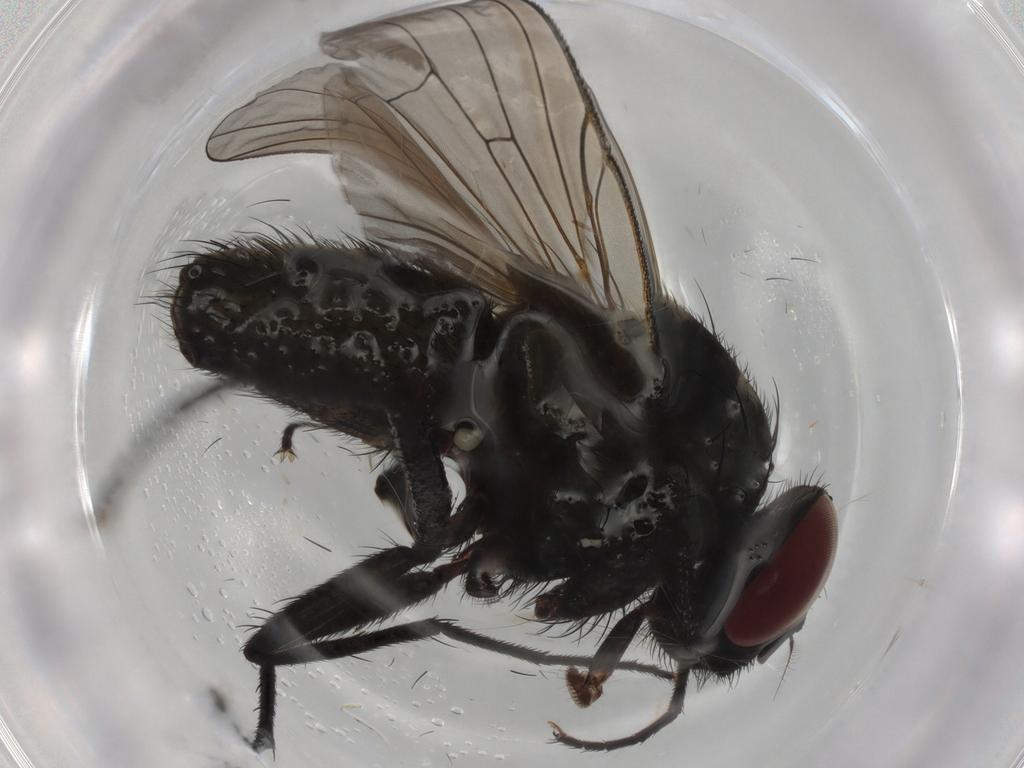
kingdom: Animalia
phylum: Arthropoda
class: Insecta
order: Diptera
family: Muscidae
